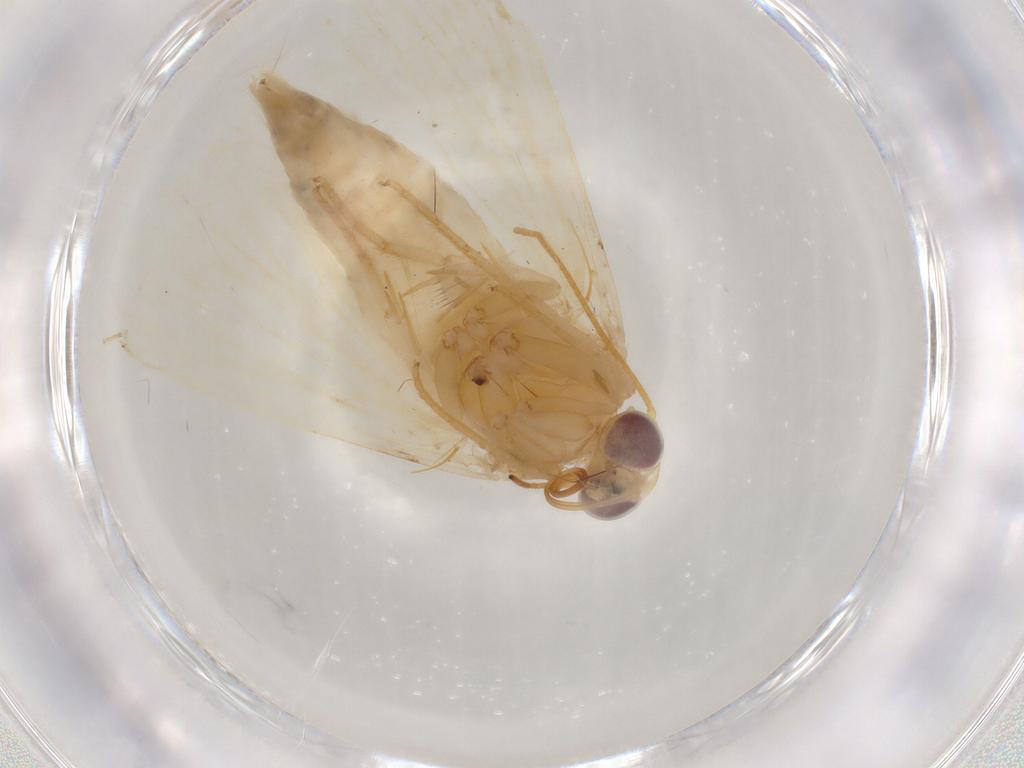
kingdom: Animalia
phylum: Arthropoda
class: Insecta
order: Lepidoptera
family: Noctuidae
